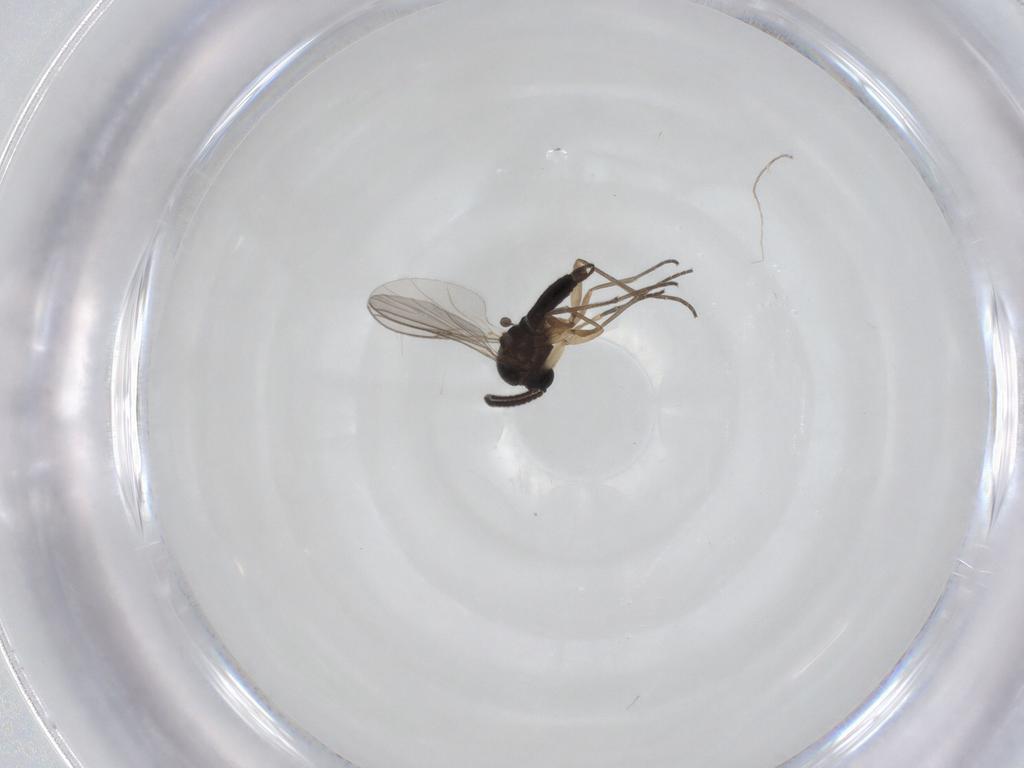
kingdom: Animalia
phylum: Arthropoda
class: Insecta
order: Diptera
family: Sciaridae
